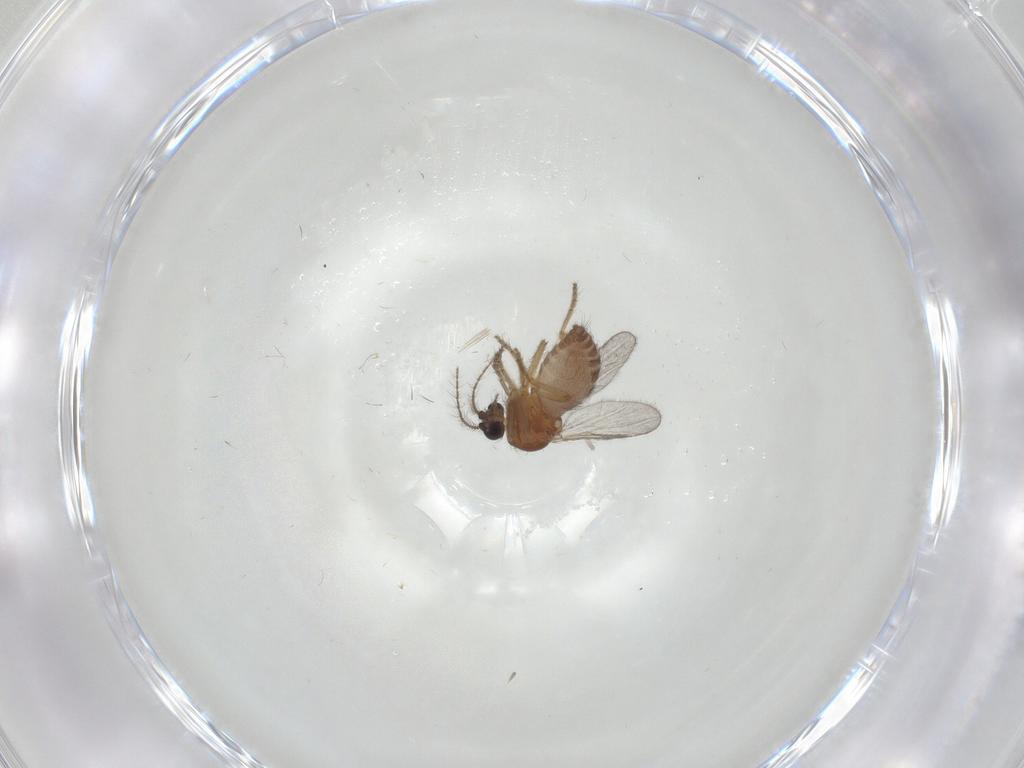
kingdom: Animalia
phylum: Arthropoda
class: Insecta
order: Diptera
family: Ceratopogonidae
